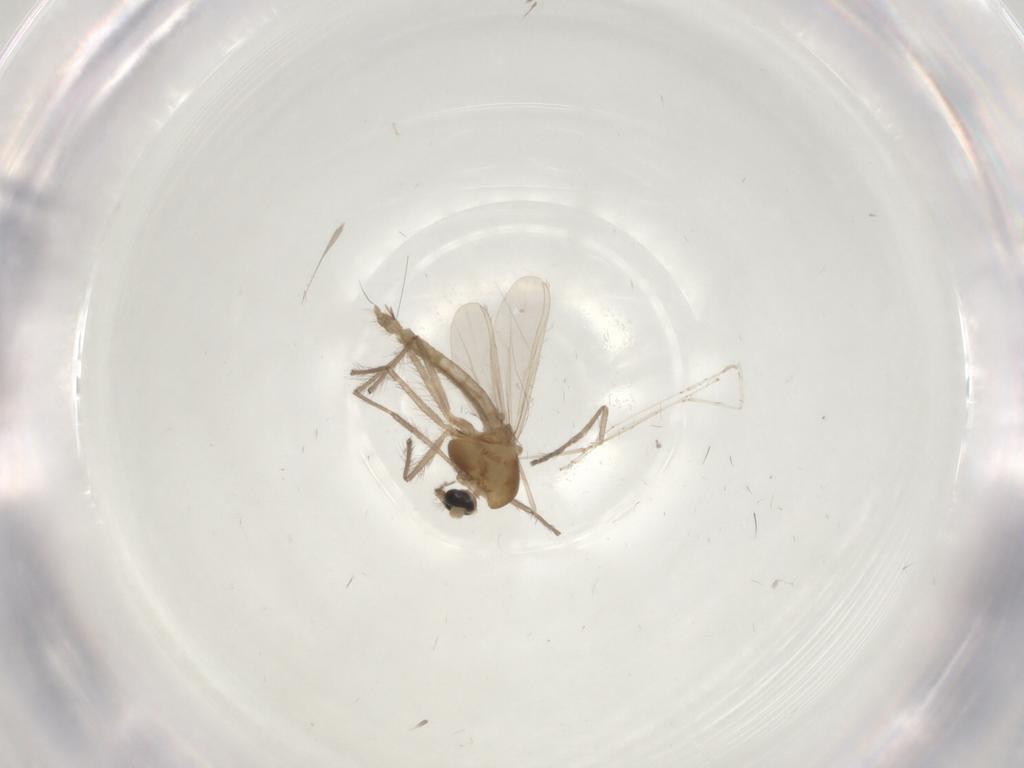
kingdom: Animalia
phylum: Arthropoda
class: Insecta
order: Diptera
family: Chironomidae
